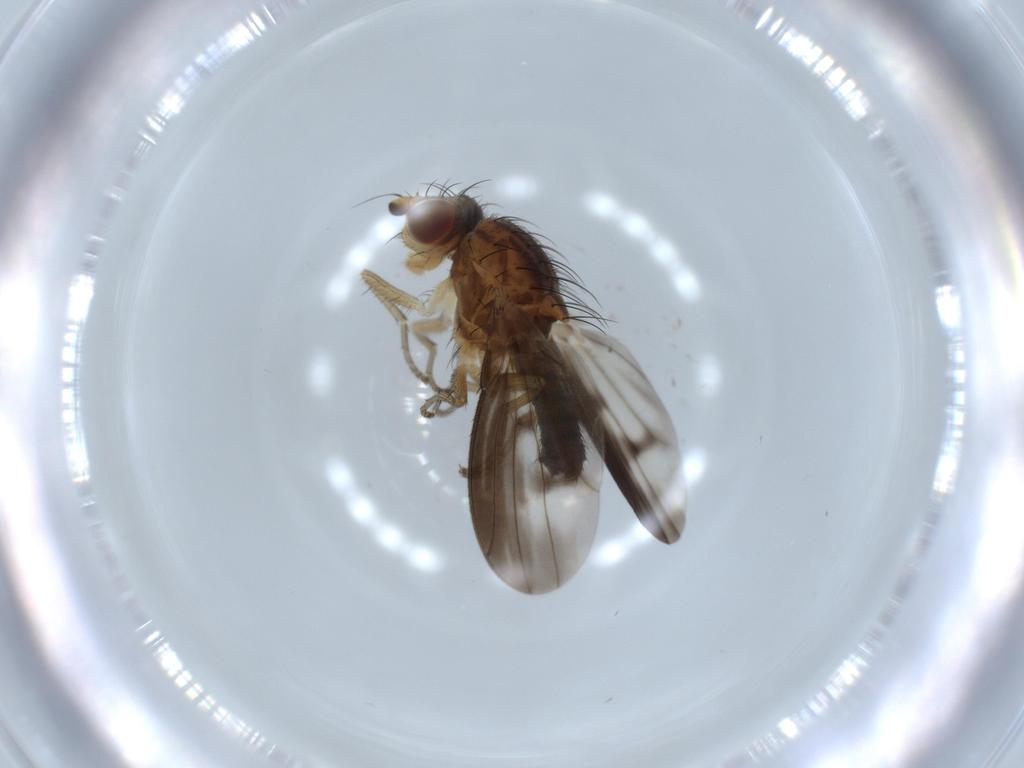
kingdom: Animalia
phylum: Arthropoda
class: Insecta
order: Diptera
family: Heleomyzidae
